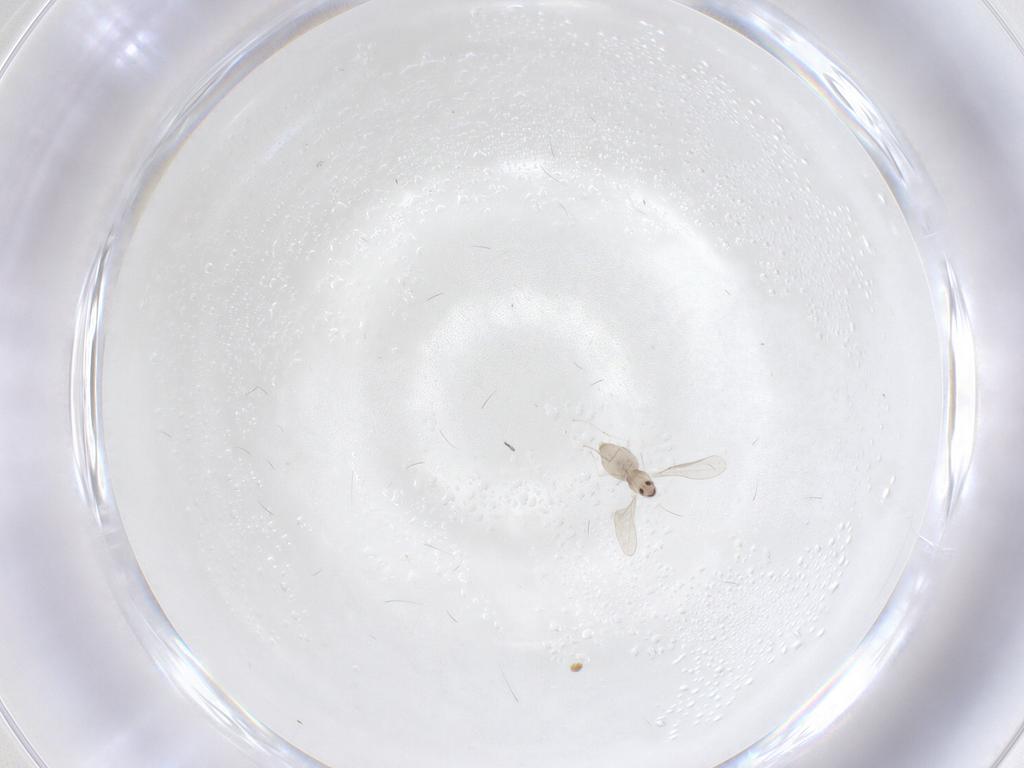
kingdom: Animalia
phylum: Arthropoda
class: Insecta
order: Diptera
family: Cecidomyiidae
